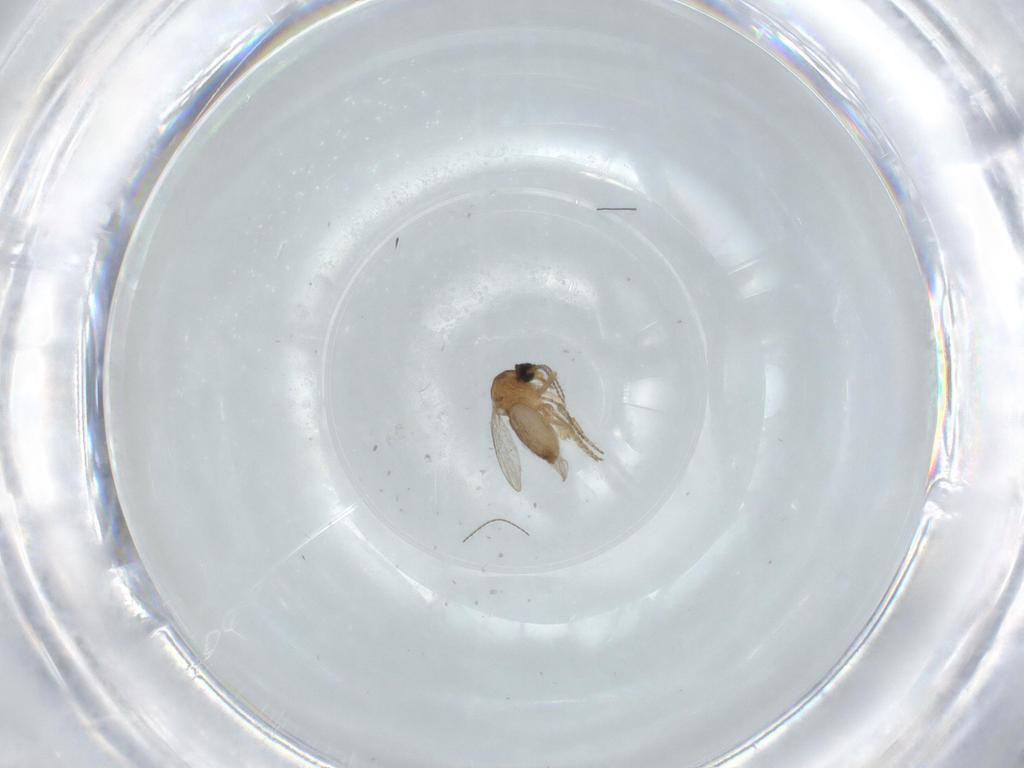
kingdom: Animalia
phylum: Arthropoda
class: Insecta
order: Diptera
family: Ceratopogonidae
